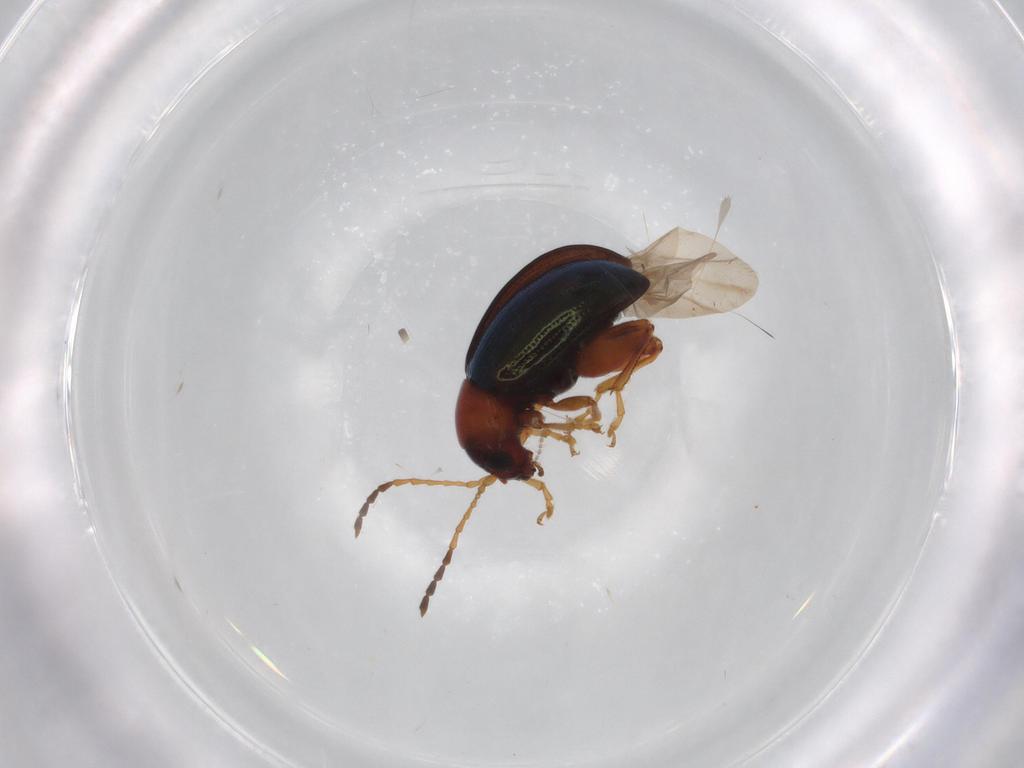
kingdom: Animalia
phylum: Arthropoda
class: Insecta
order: Coleoptera
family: Chrysomelidae
